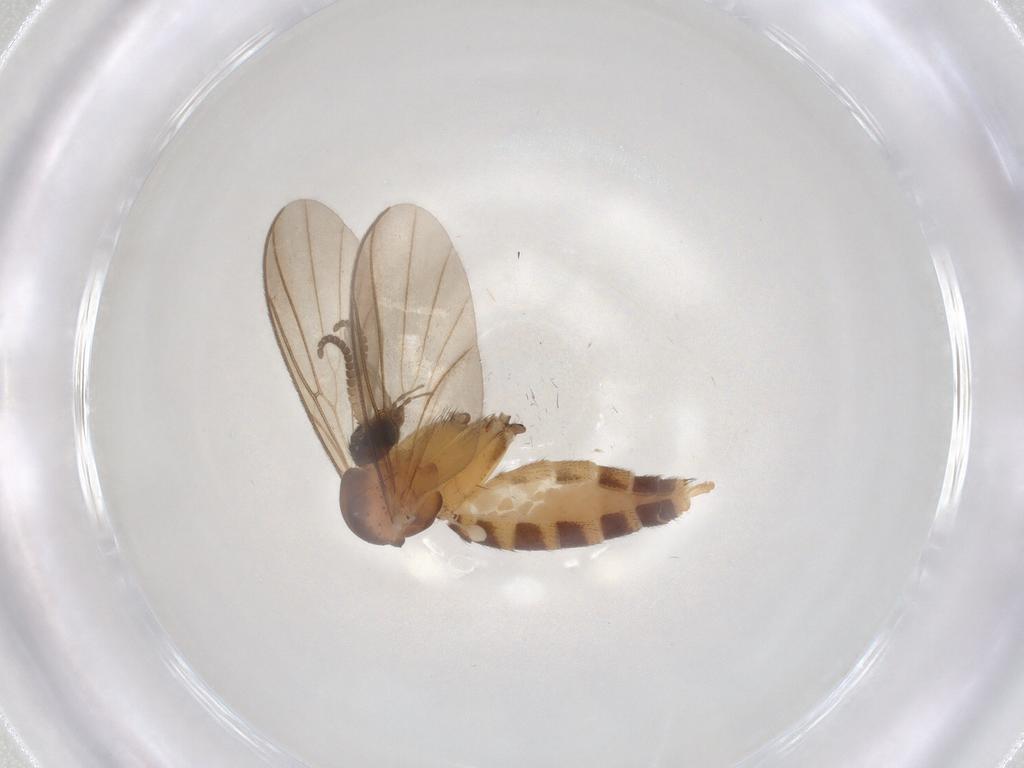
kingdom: Animalia
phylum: Arthropoda
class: Insecta
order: Diptera
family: Mycetophilidae
